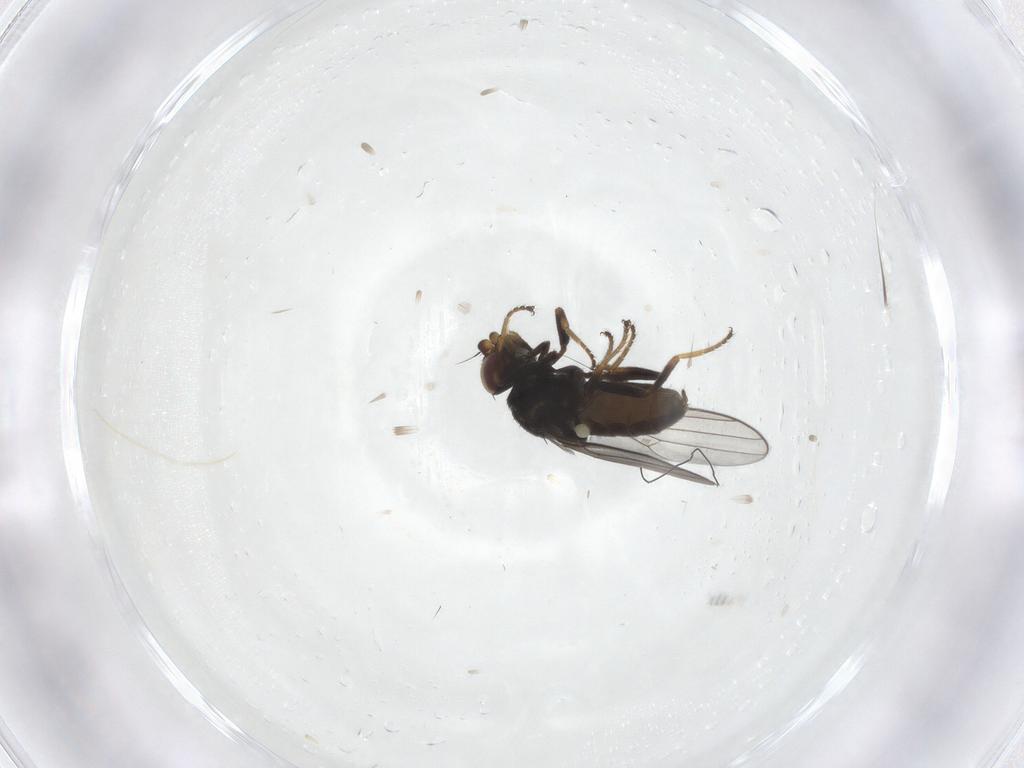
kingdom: Animalia
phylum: Arthropoda
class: Insecta
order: Diptera
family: Chloropidae
